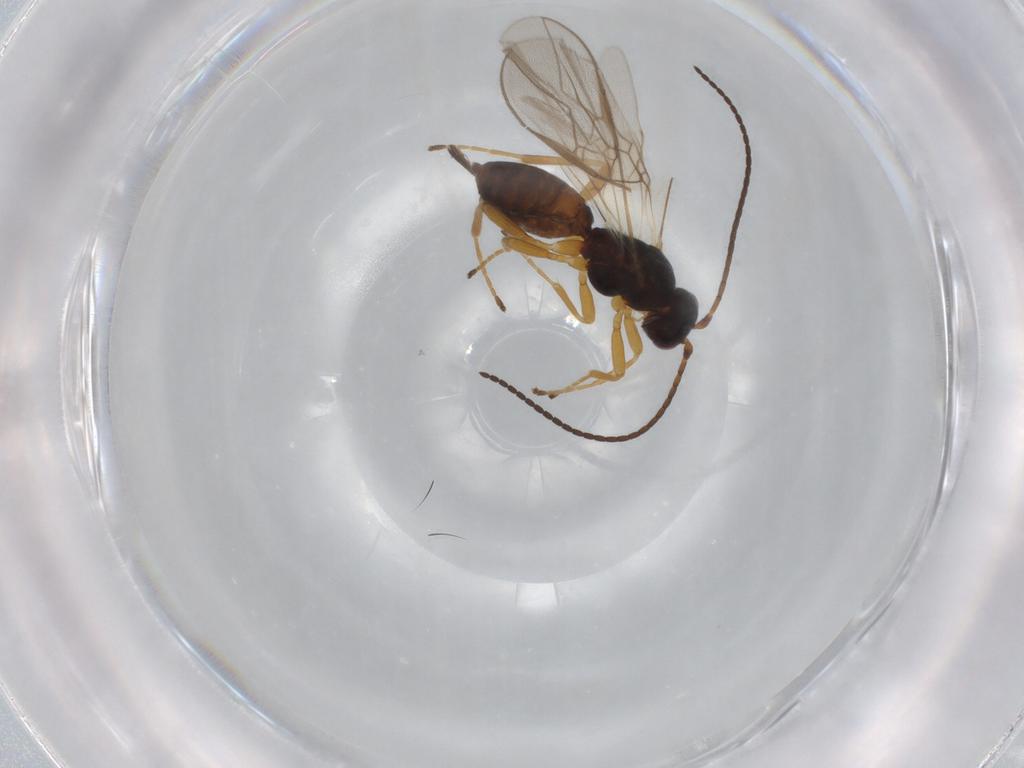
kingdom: Animalia
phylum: Arthropoda
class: Insecta
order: Hymenoptera
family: Braconidae
